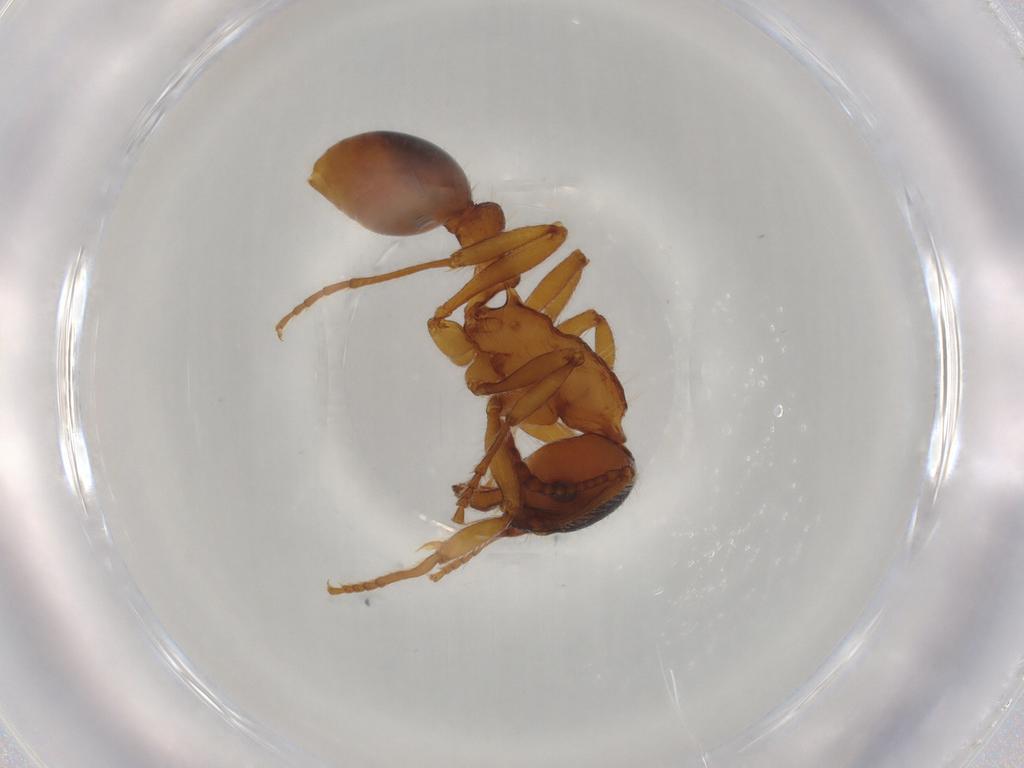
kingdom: Animalia
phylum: Arthropoda
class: Insecta
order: Hymenoptera
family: Formicidae
